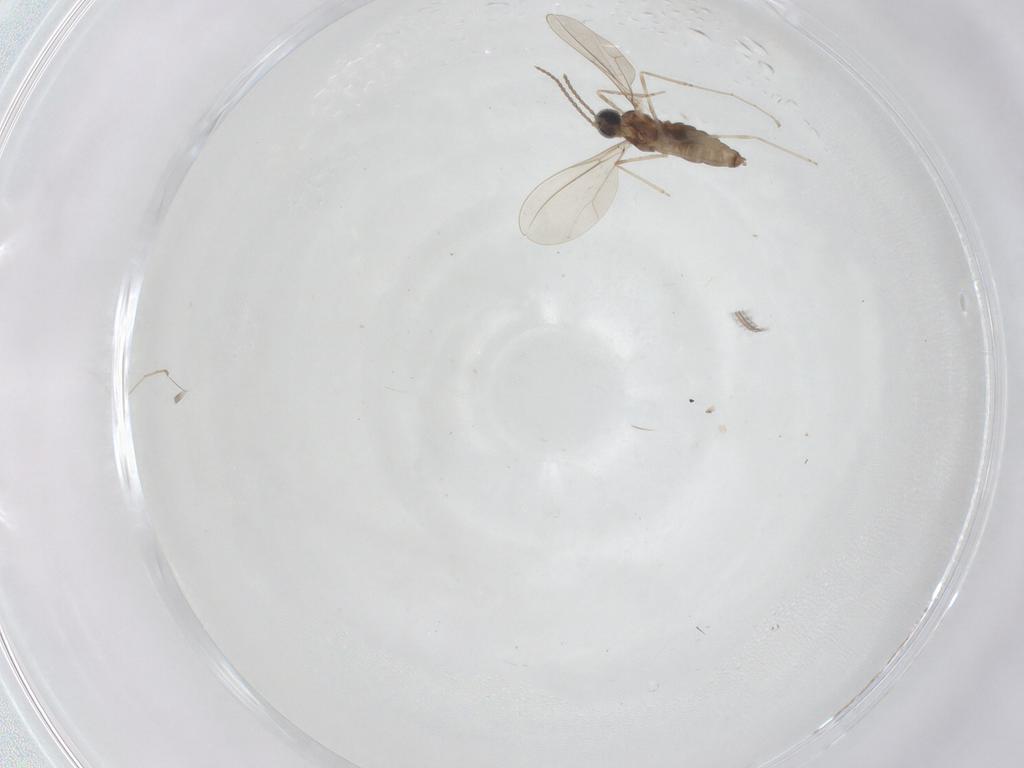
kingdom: Animalia
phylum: Arthropoda
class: Insecta
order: Diptera
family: Cecidomyiidae
